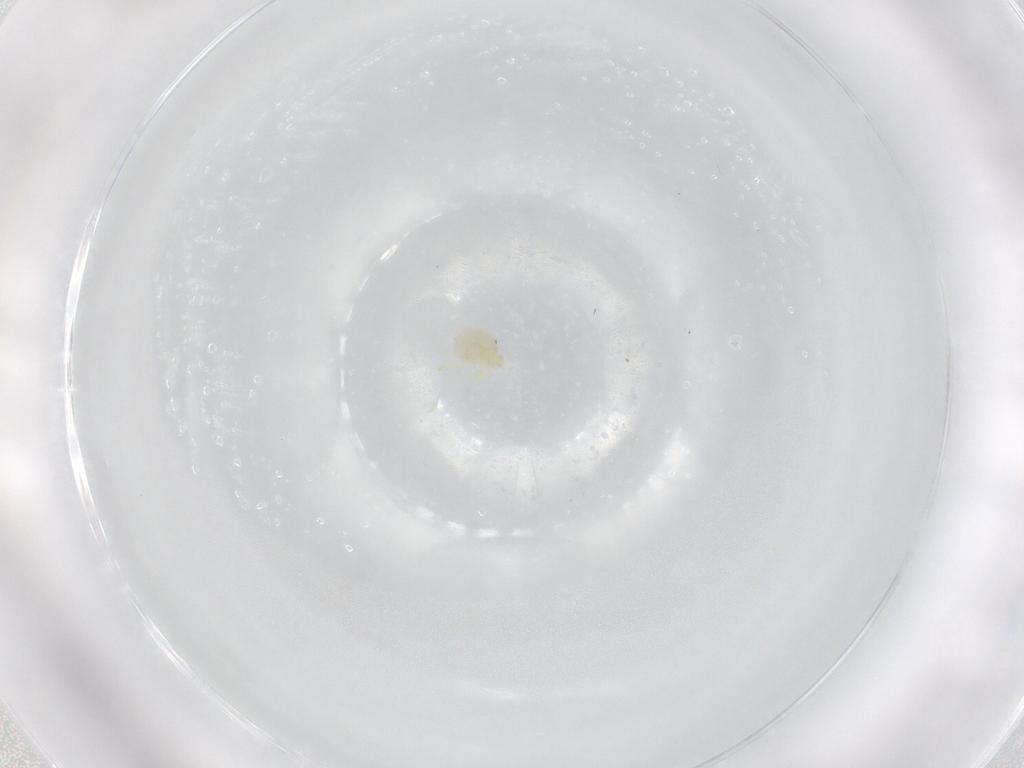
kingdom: Animalia
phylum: Arthropoda
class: Arachnida
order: Trombidiformes
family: Sperchontidae
